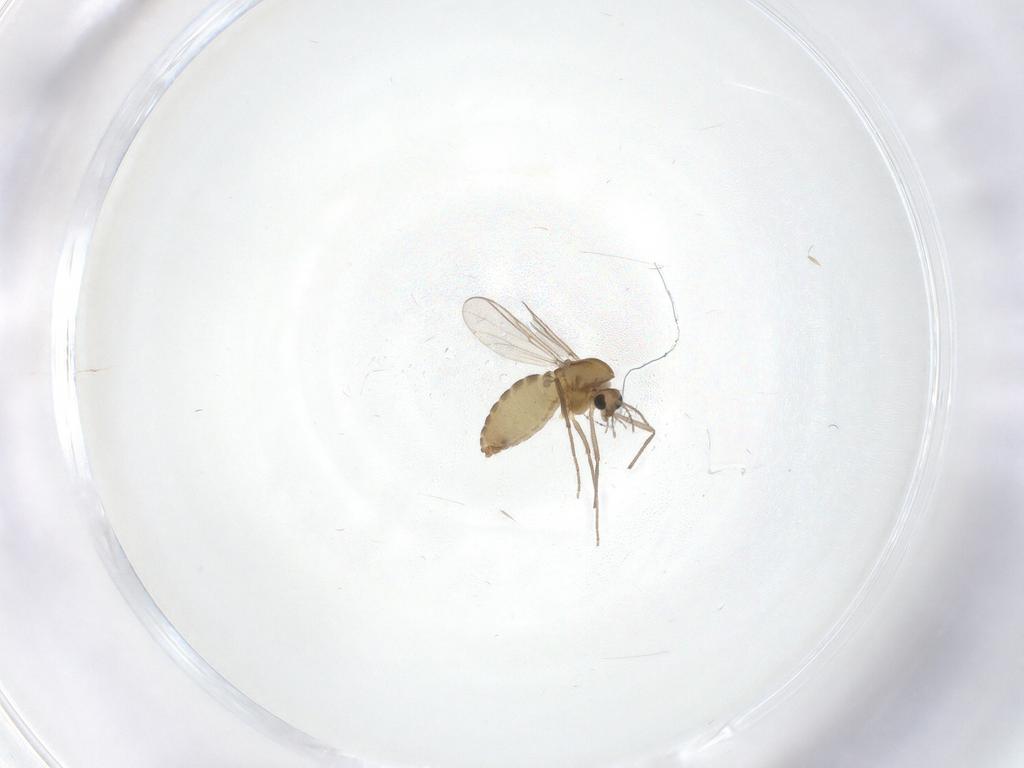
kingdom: Animalia
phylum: Arthropoda
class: Insecta
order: Diptera
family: Chironomidae
